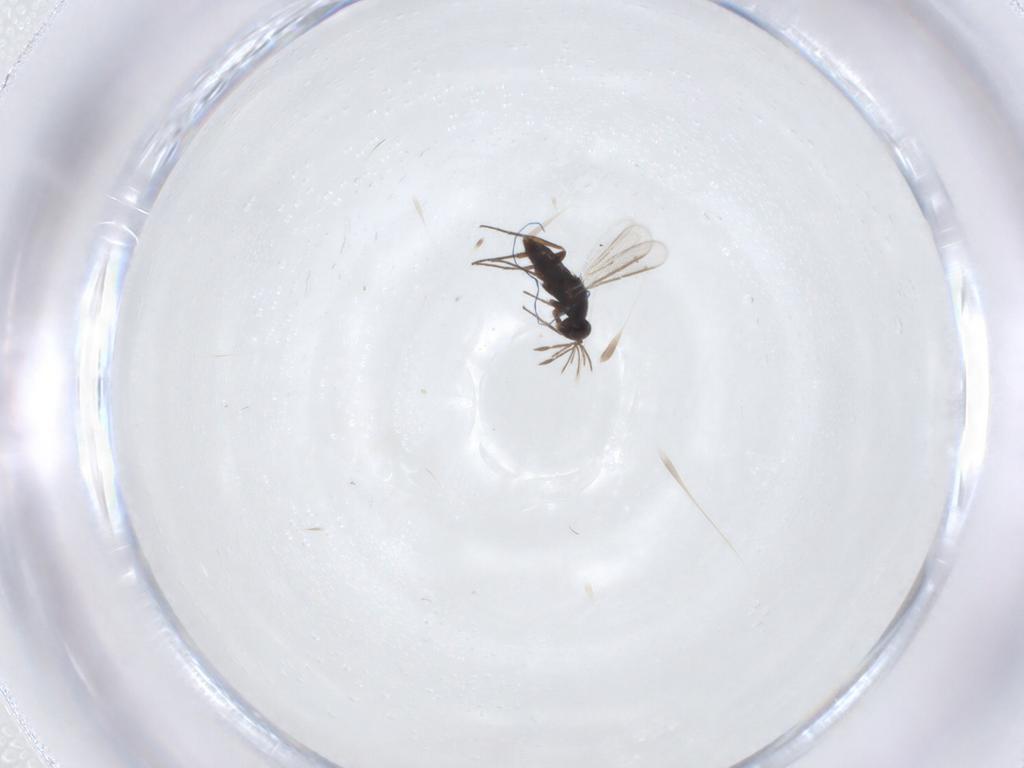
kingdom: Animalia
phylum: Arthropoda
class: Insecta
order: Hymenoptera
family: Eulophidae
